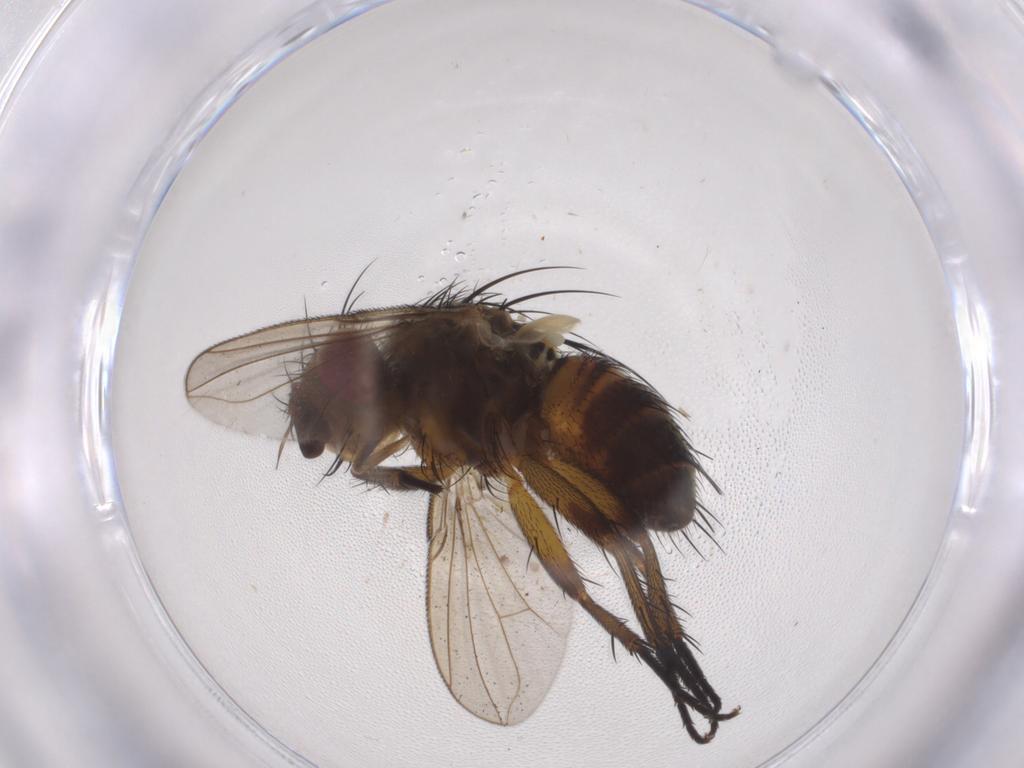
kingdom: Animalia
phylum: Arthropoda
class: Insecta
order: Diptera
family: Tachinidae
